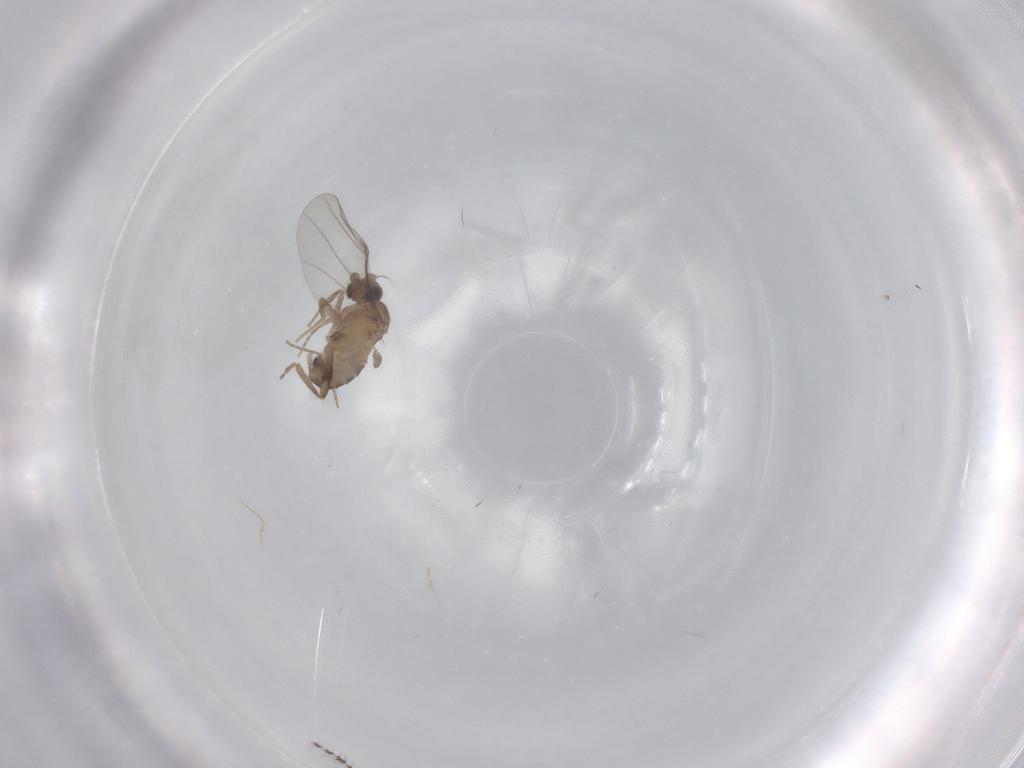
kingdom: Animalia
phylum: Arthropoda
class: Insecta
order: Diptera
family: Sciaridae
